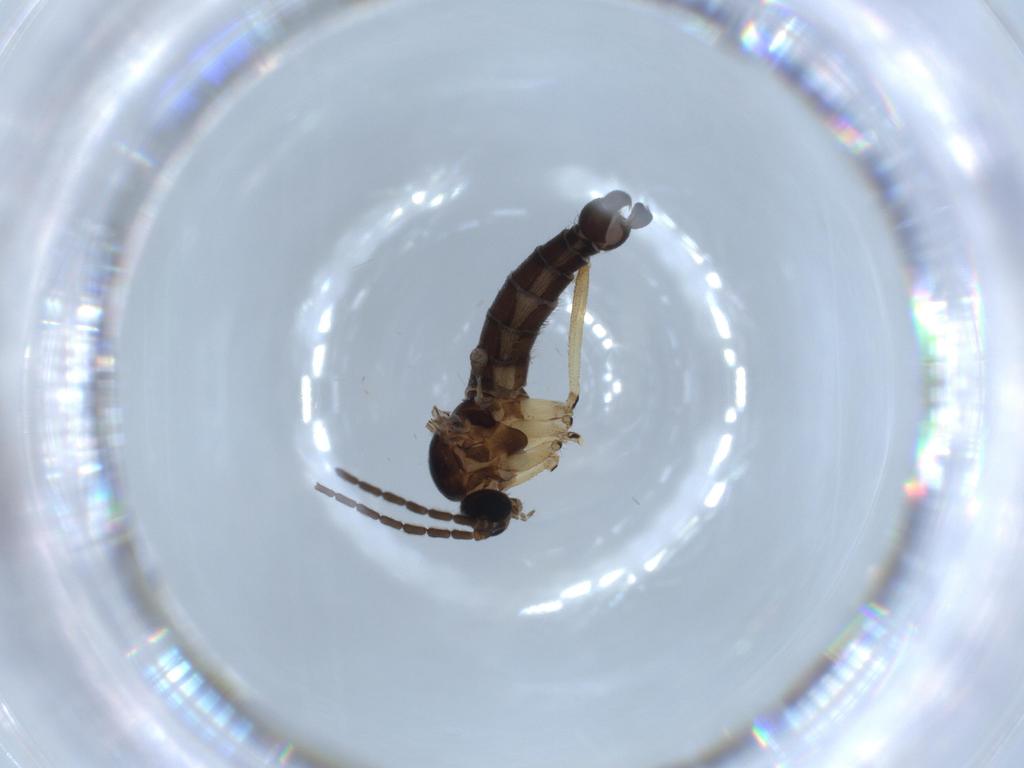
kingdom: Animalia
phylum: Arthropoda
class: Insecta
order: Diptera
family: Sciaridae
